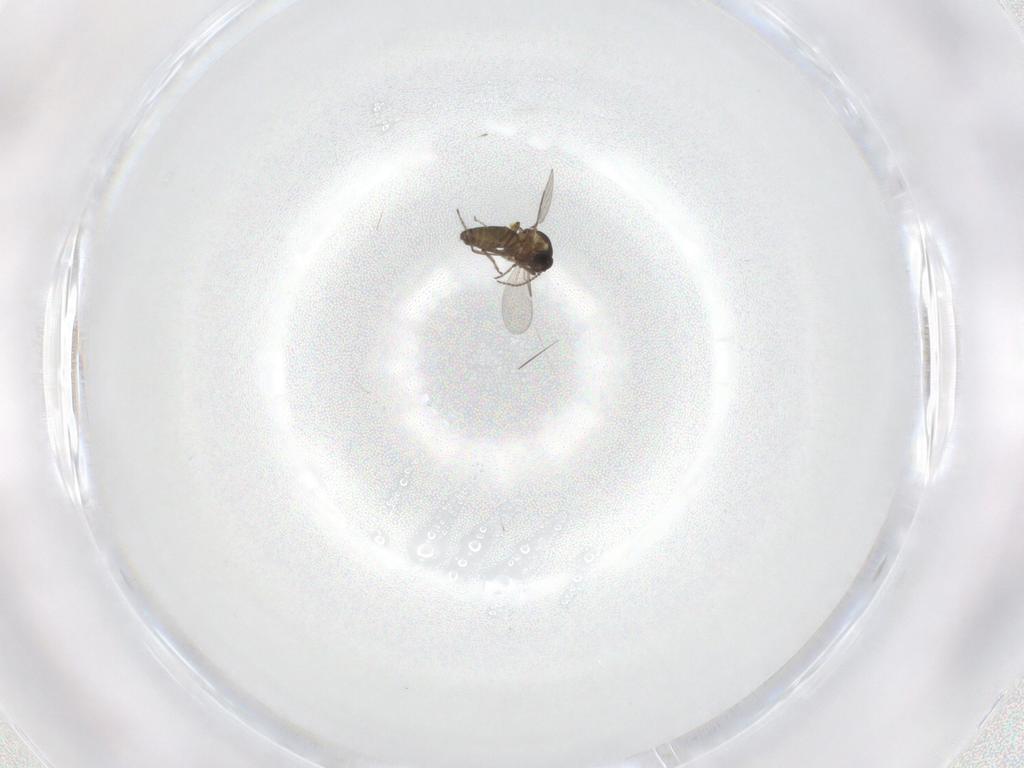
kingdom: Animalia
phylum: Arthropoda
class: Insecta
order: Diptera
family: Ceratopogonidae
